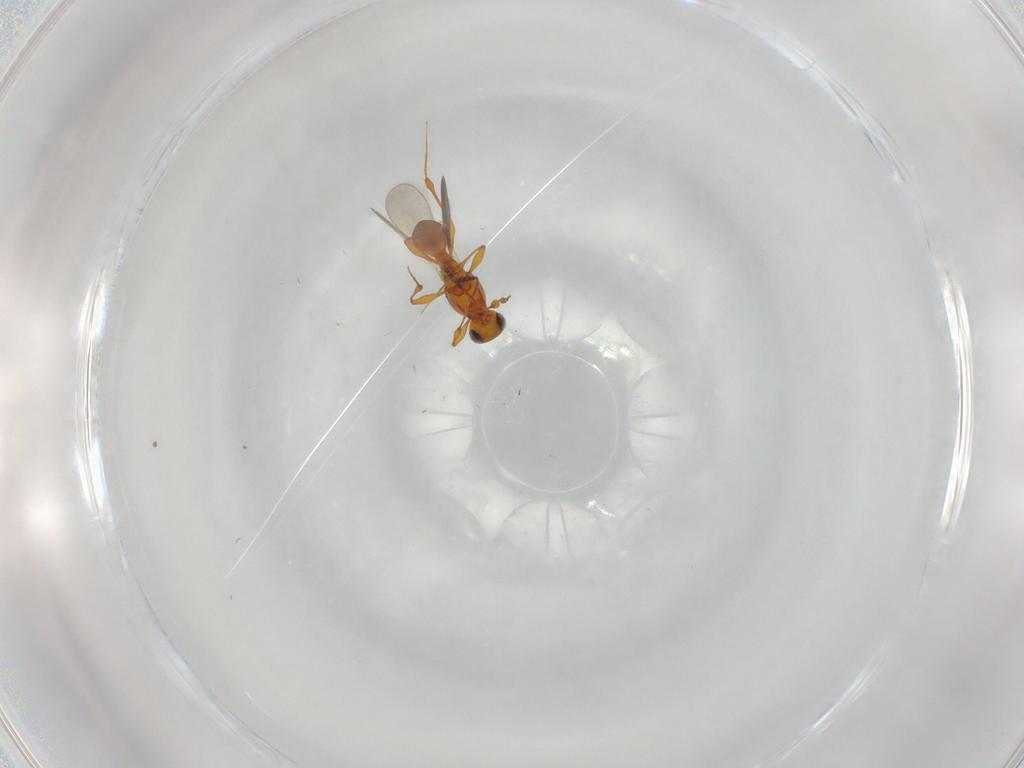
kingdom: Animalia
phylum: Arthropoda
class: Insecta
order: Hymenoptera
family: Platygastridae
